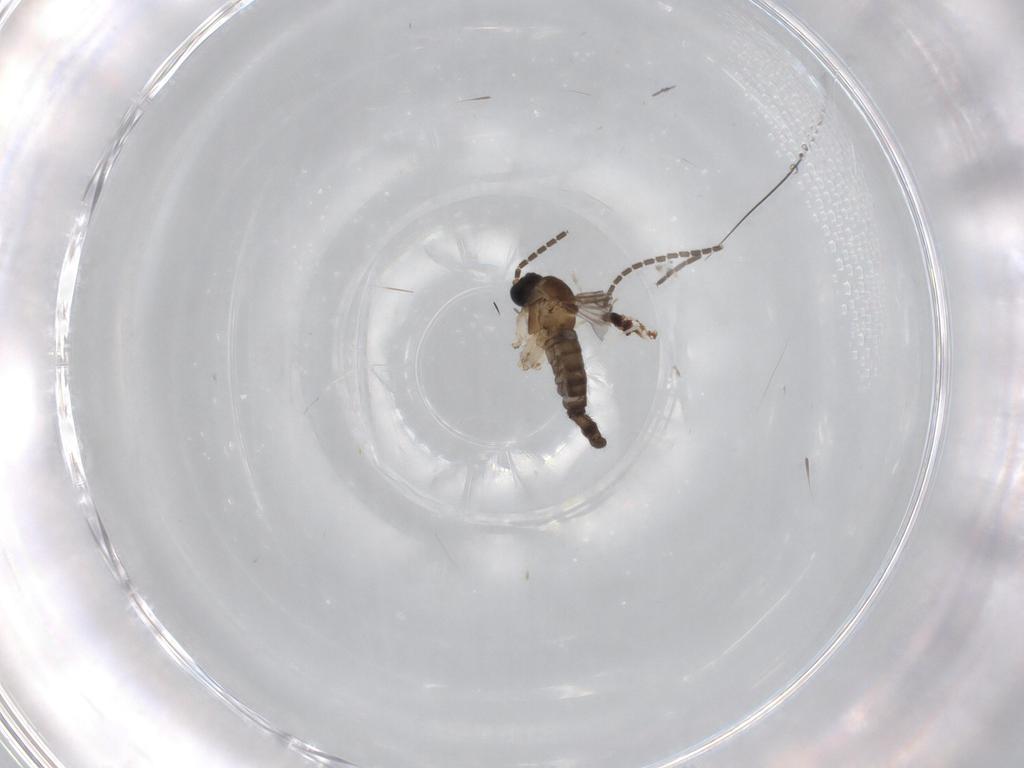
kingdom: Animalia
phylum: Arthropoda
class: Insecta
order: Diptera
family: Sciaridae
